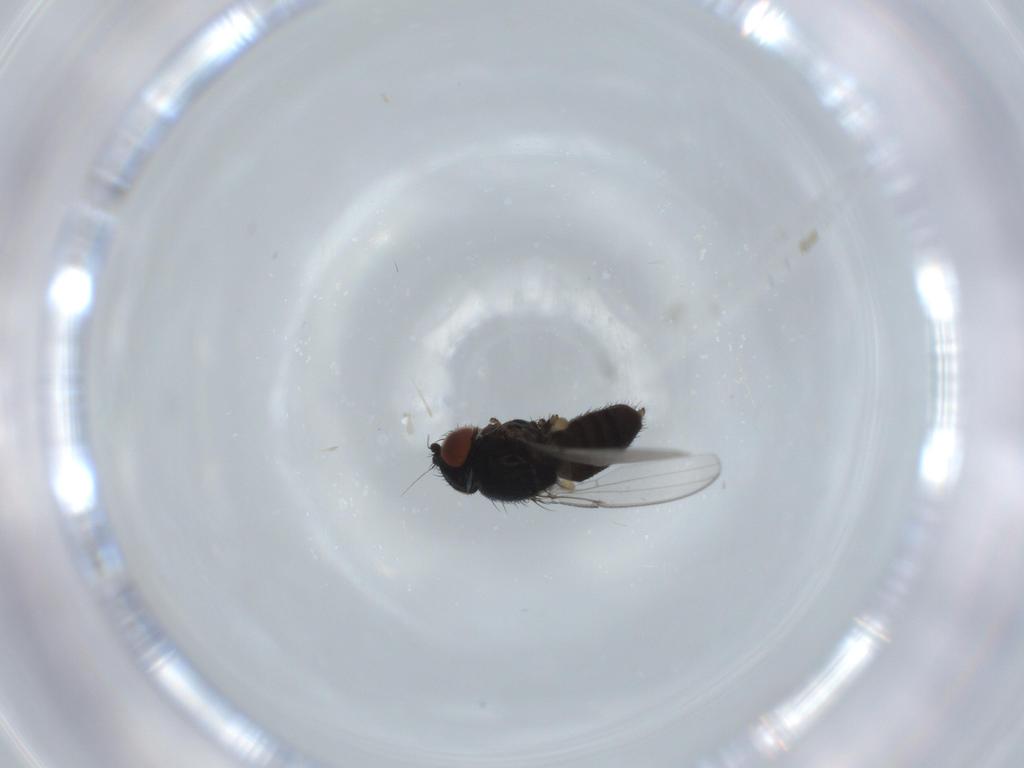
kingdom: Animalia
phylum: Arthropoda
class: Insecta
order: Diptera
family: Milichiidae
